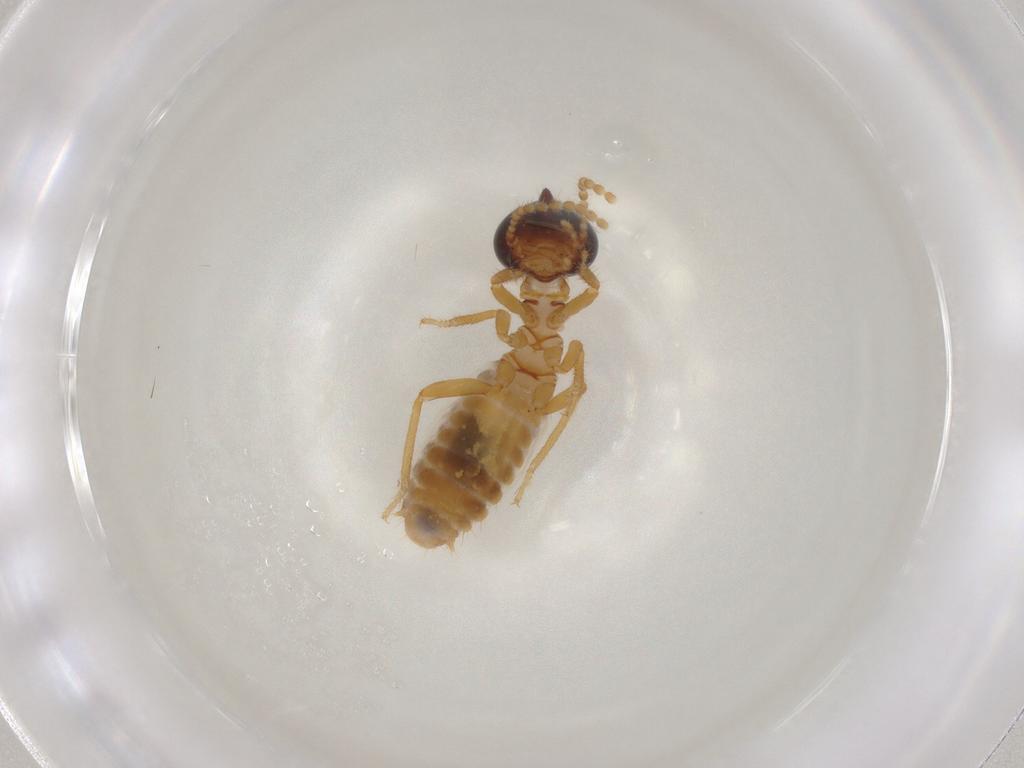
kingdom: Animalia
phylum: Arthropoda
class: Insecta
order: Blattodea
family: Termitidae
